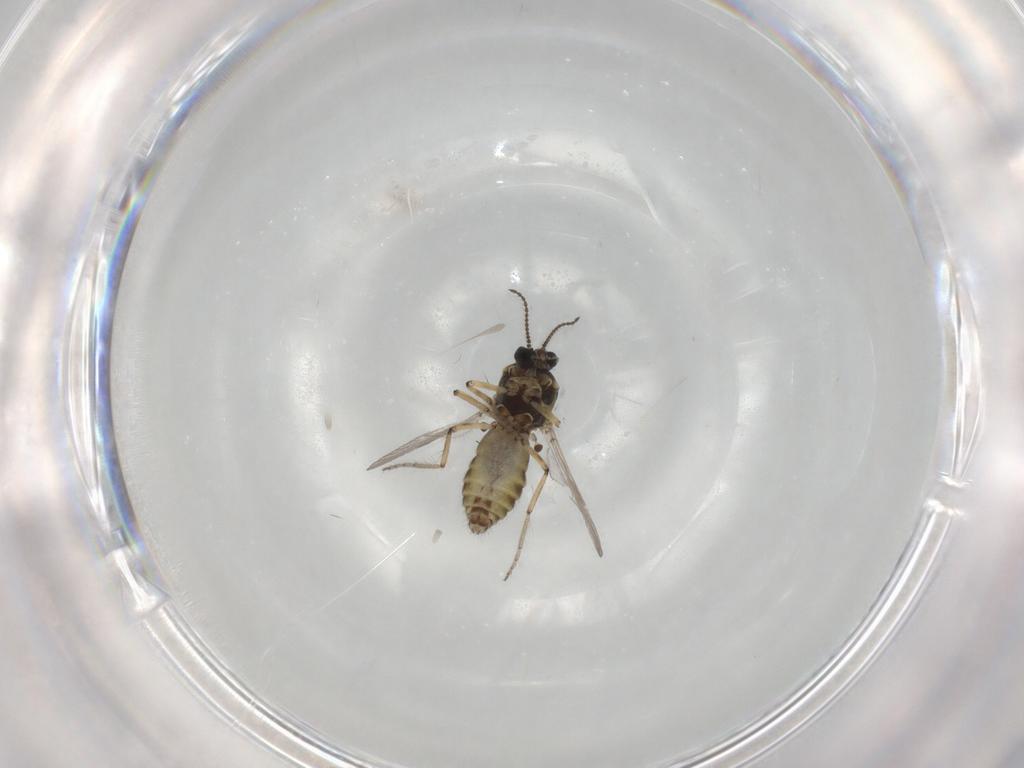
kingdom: Animalia
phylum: Arthropoda
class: Insecta
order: Diptera
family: Ceratopogonidae
